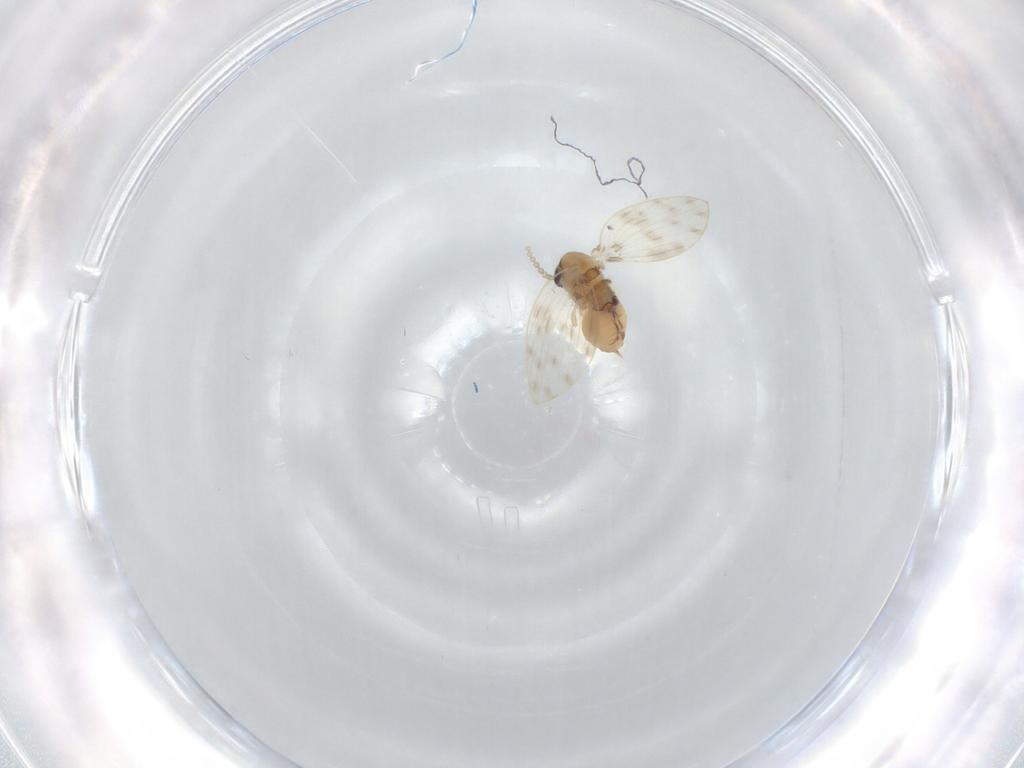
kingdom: Animalia
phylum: Arthropoda
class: Insecta
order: Diptera
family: Psychodidae
